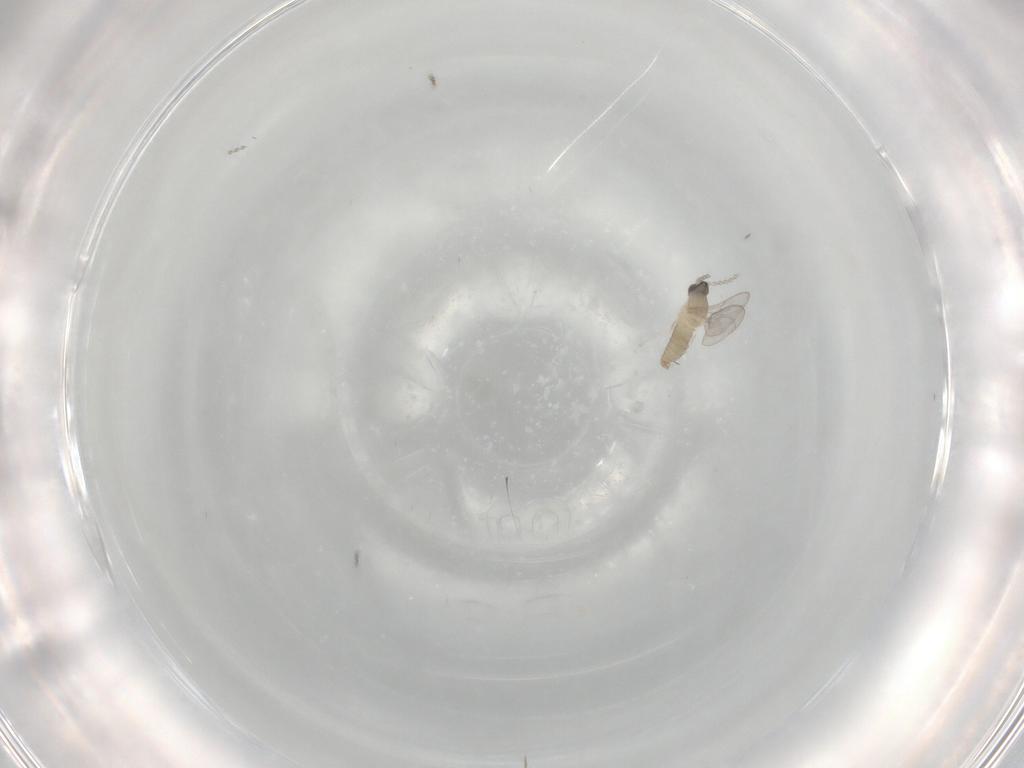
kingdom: Animalia
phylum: Arthropoda
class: Insecta
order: Diptera
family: Cecidomyiidae
